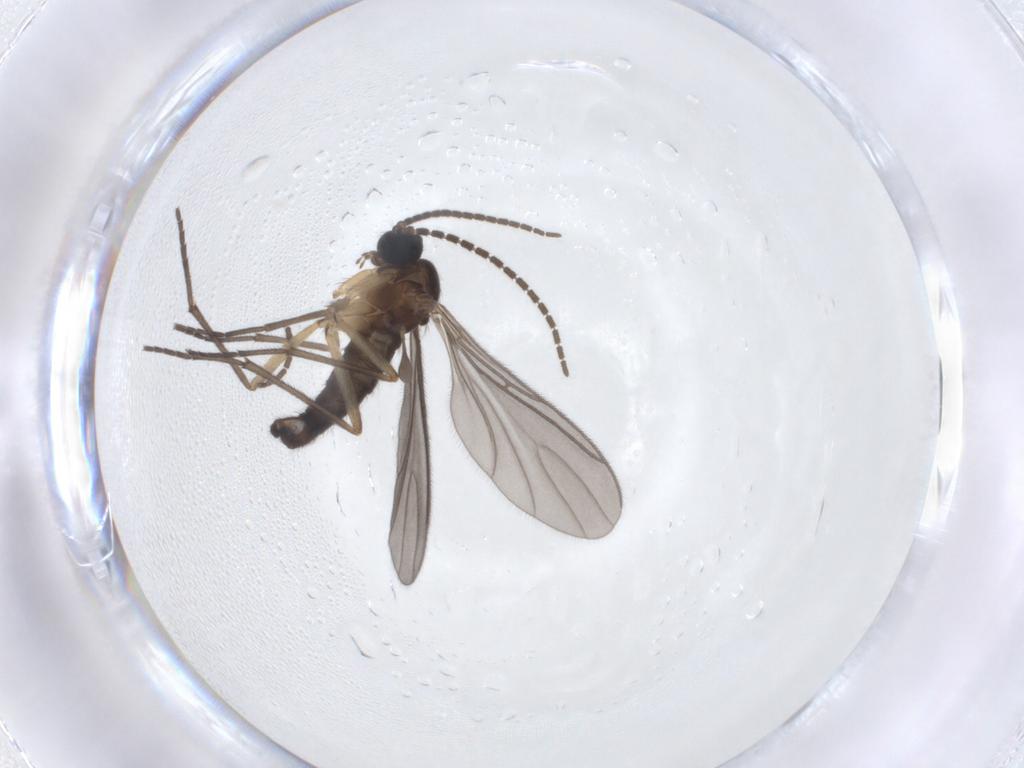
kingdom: Animalia
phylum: Arthropoda
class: Insecta
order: Diptera
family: Sciaridae
